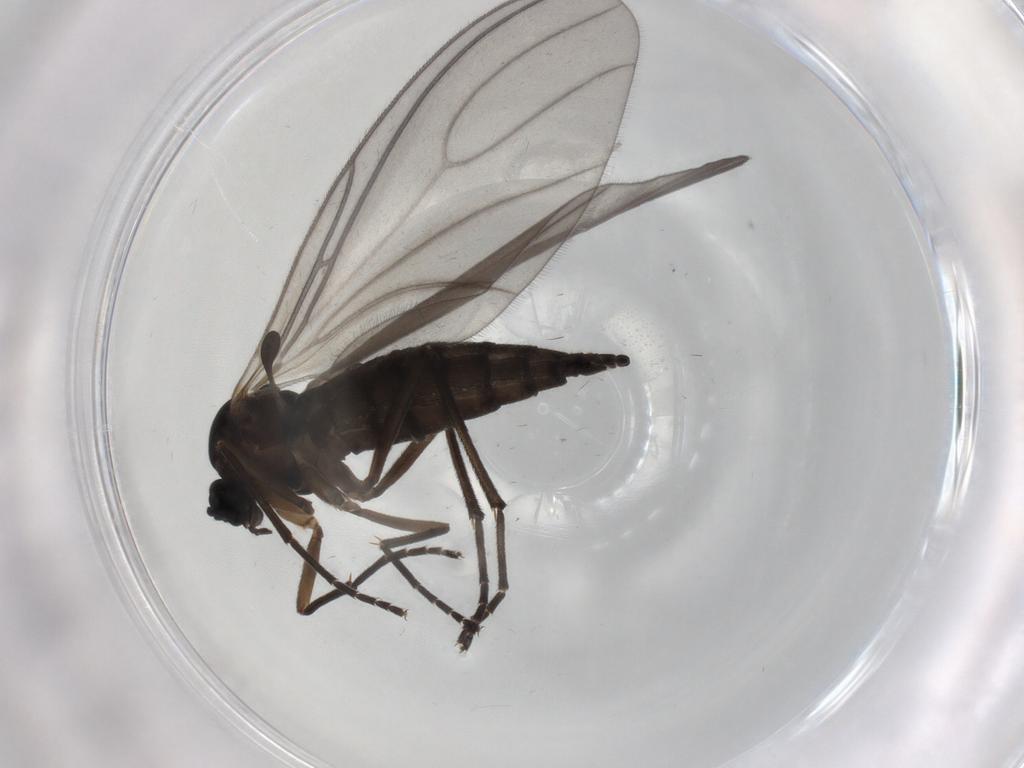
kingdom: Animalia
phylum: Arthropoda
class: Insecta
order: Diptera
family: Sciaridae
